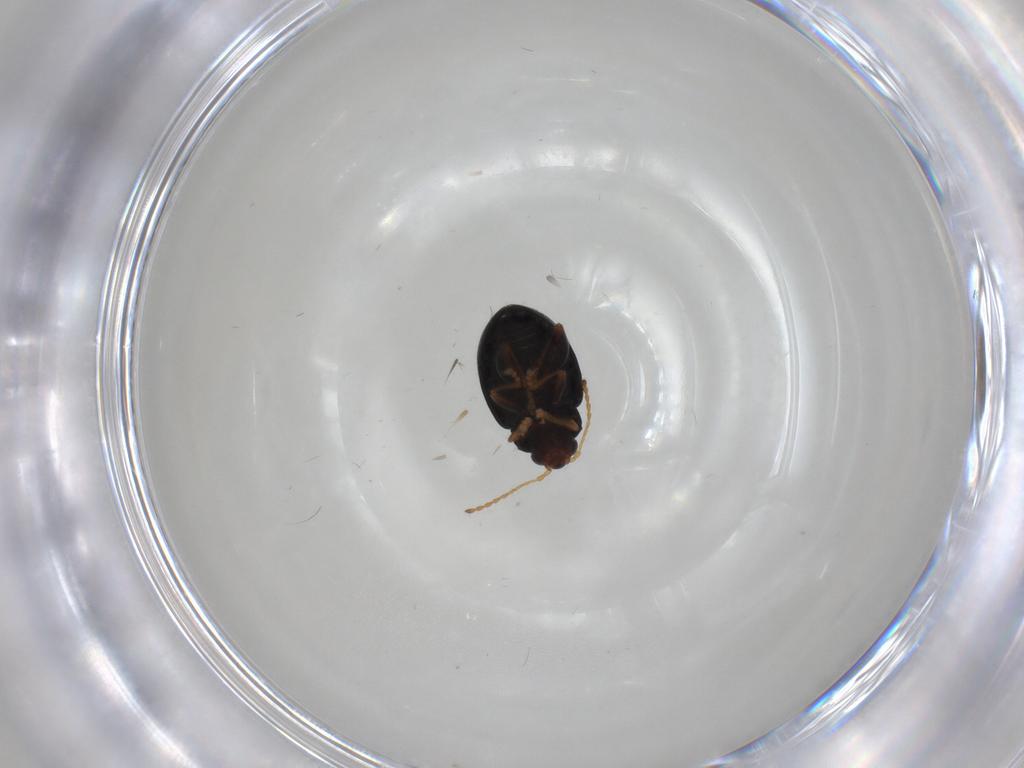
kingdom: Animalia
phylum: Arthropoda
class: Insecta
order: Coleoptera
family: Chrysomelidae
